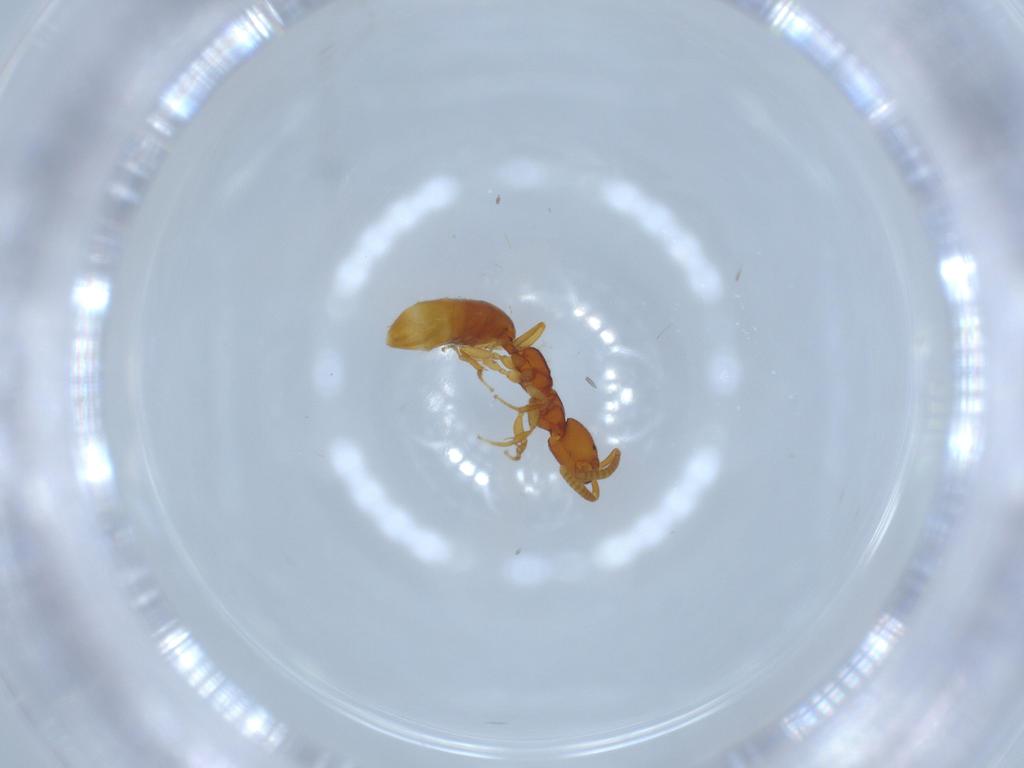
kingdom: Animalia
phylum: Arthropoda
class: Insecta
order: Hymenoptera
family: Bethylidae
